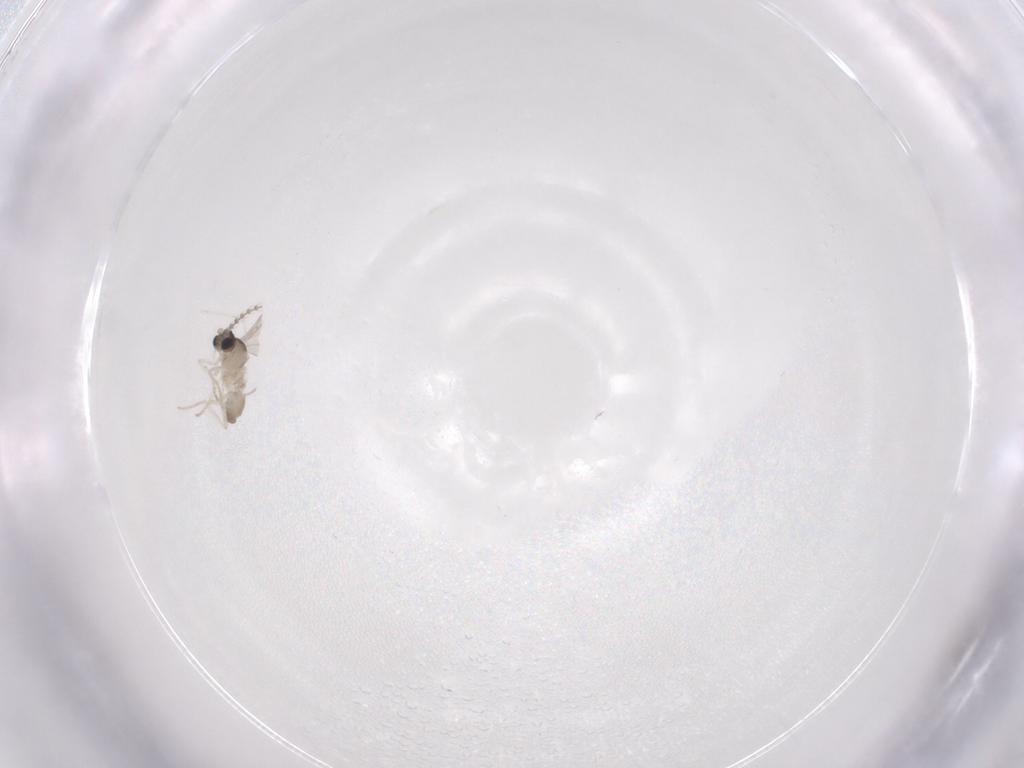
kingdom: Animalia
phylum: Arthropoda
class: Insecta
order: Diptera
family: Cecidomyiidae
